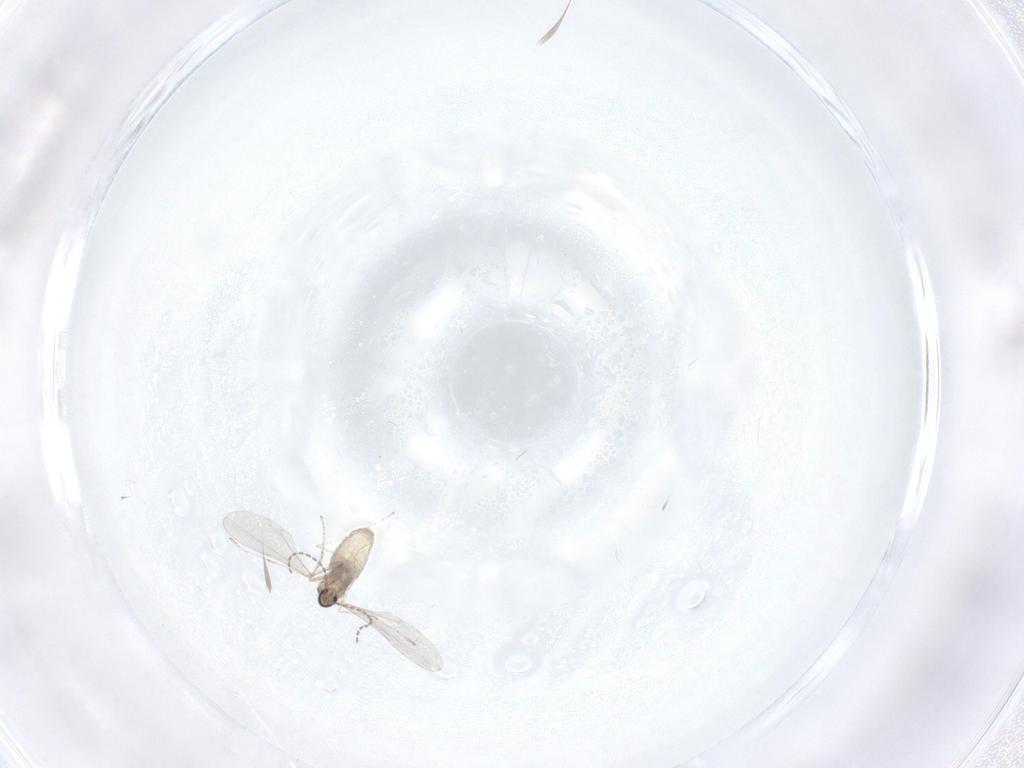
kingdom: Animalia
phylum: Arthropoda
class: Insecta
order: Diptera
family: Cecidomyiidae
